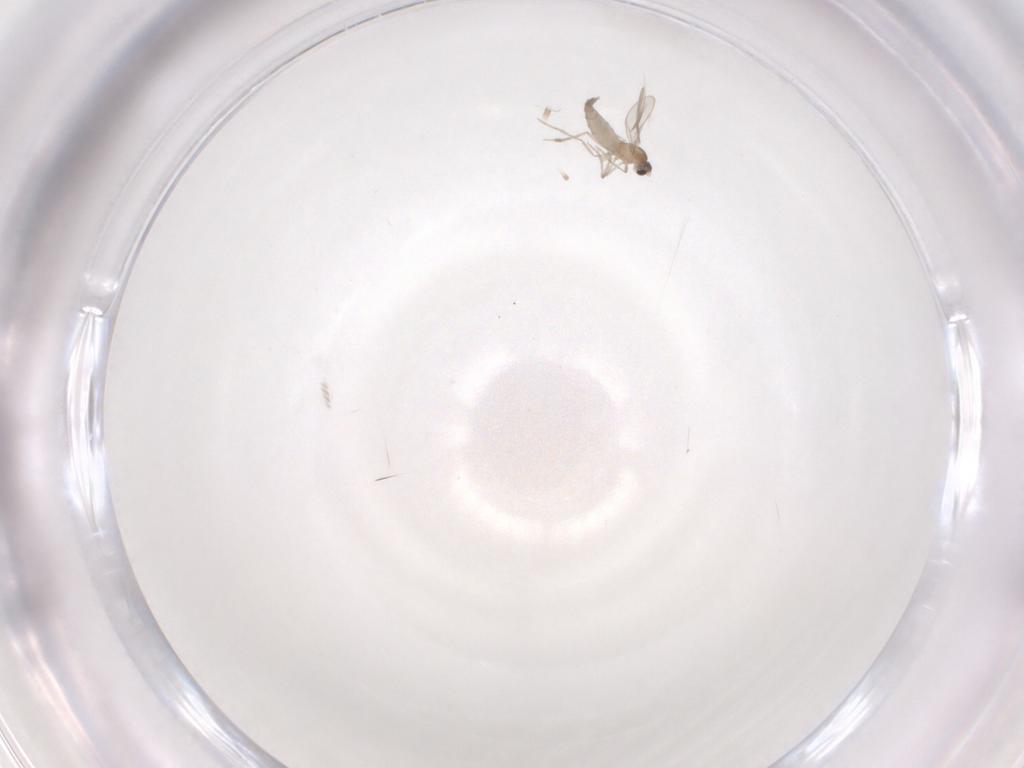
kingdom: Animalia
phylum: Arthropoda
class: Insecta
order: Diptera
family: Cecidomyiidae
